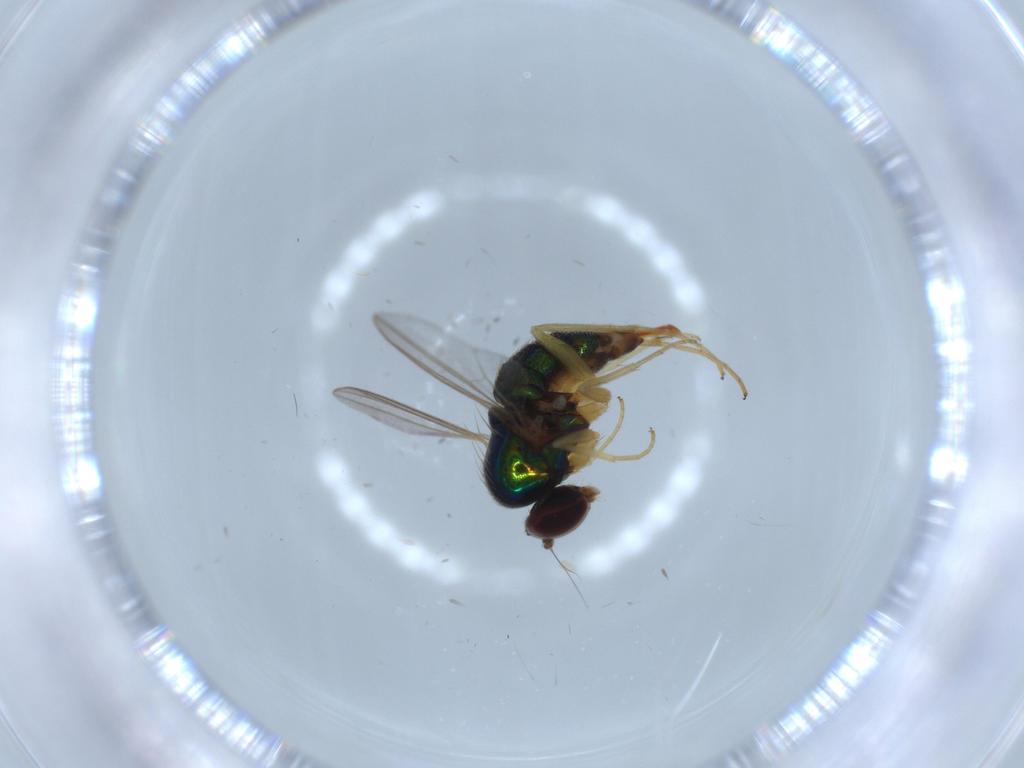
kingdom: Animalia
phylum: Arthropoda
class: Insecta
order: Diptera
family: Dolichopodidae
